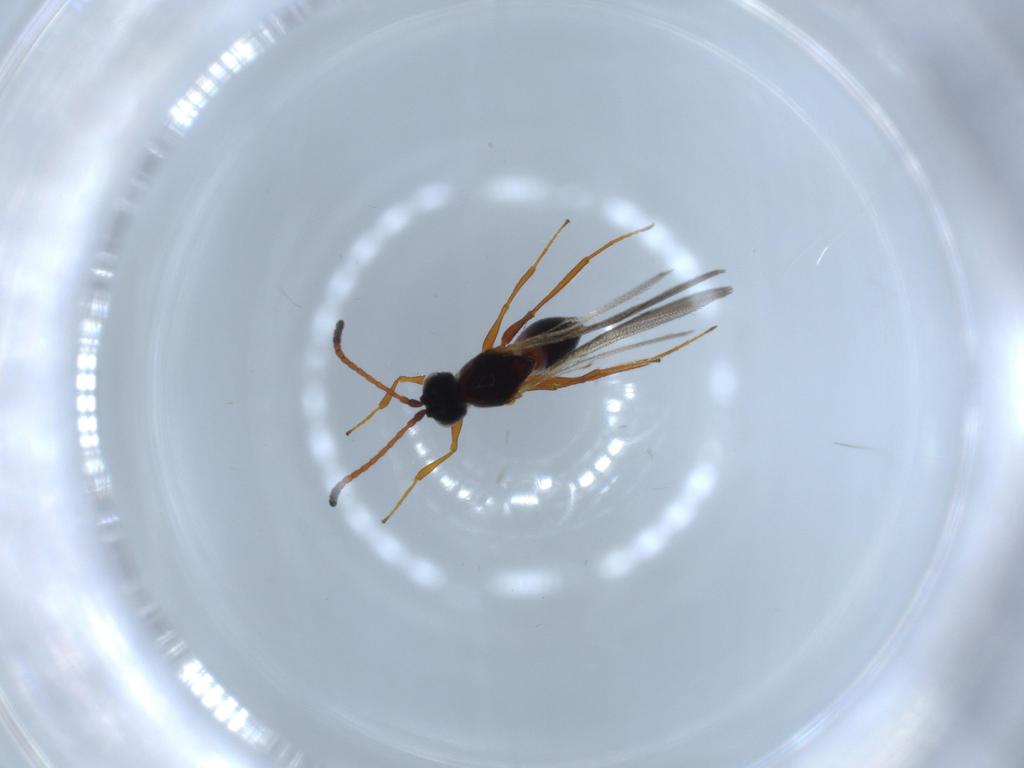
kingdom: Animalia
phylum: Arthropoda
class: Insecta
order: Hymenoptera
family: Figitidae
